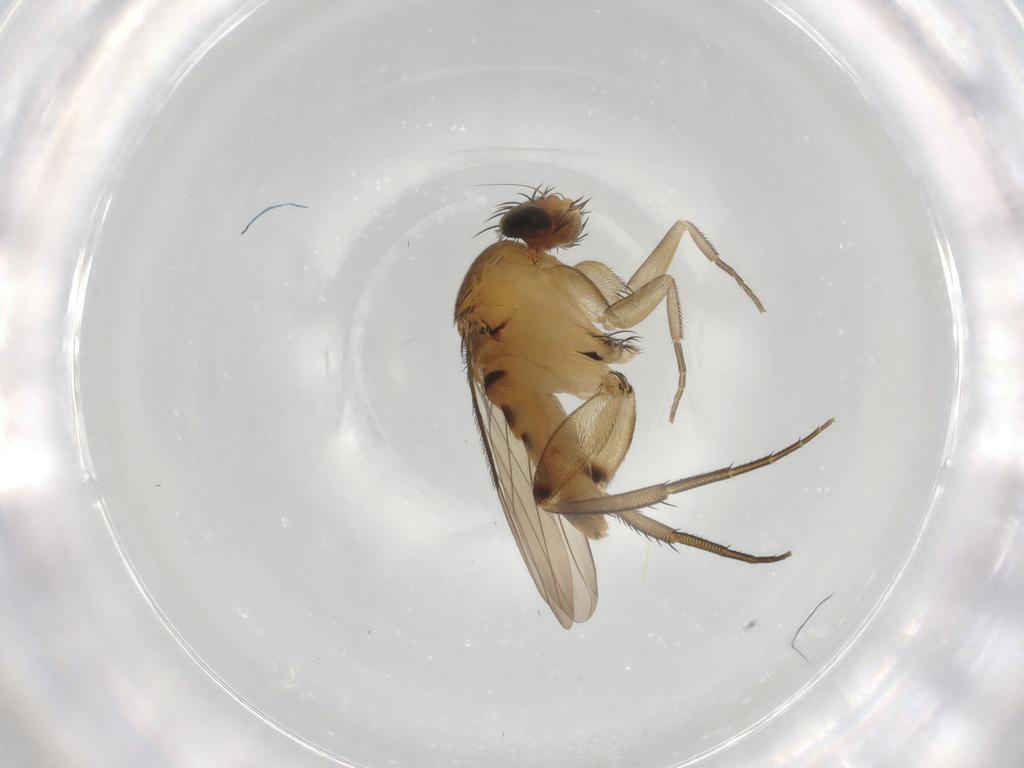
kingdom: Animalia
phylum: Arthropoda
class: Insecta
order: Diptera
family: Phoridae
